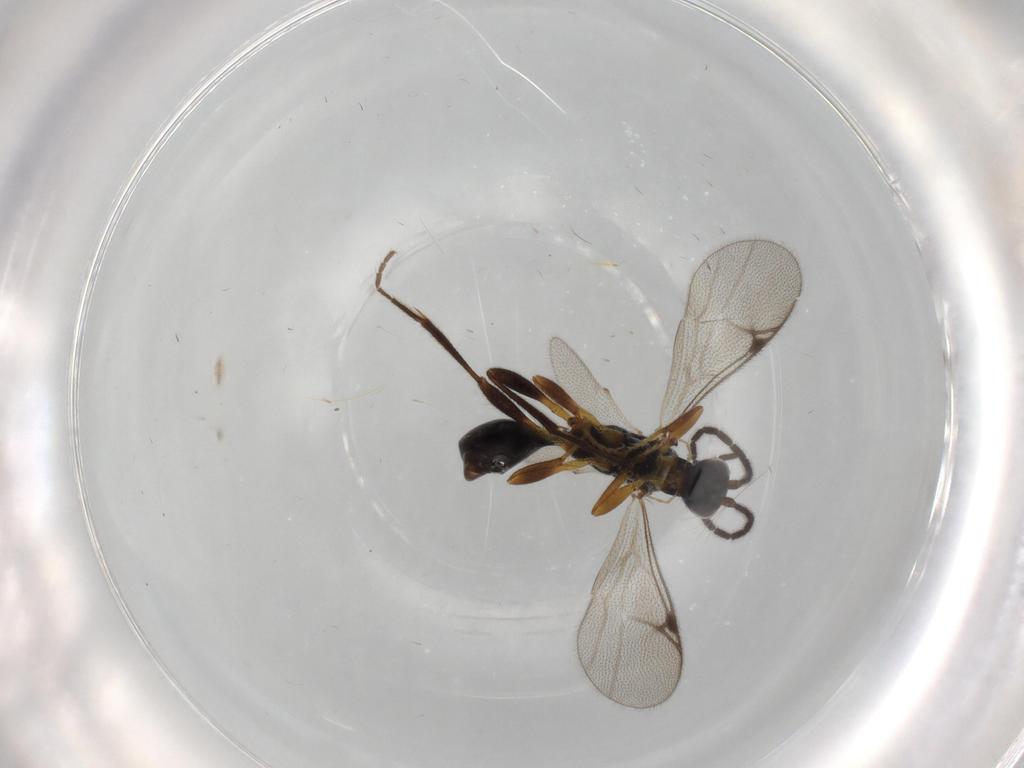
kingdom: Animalia
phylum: Arthropoda
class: Insecta
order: Hymenoptera
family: Proctotrupidae
